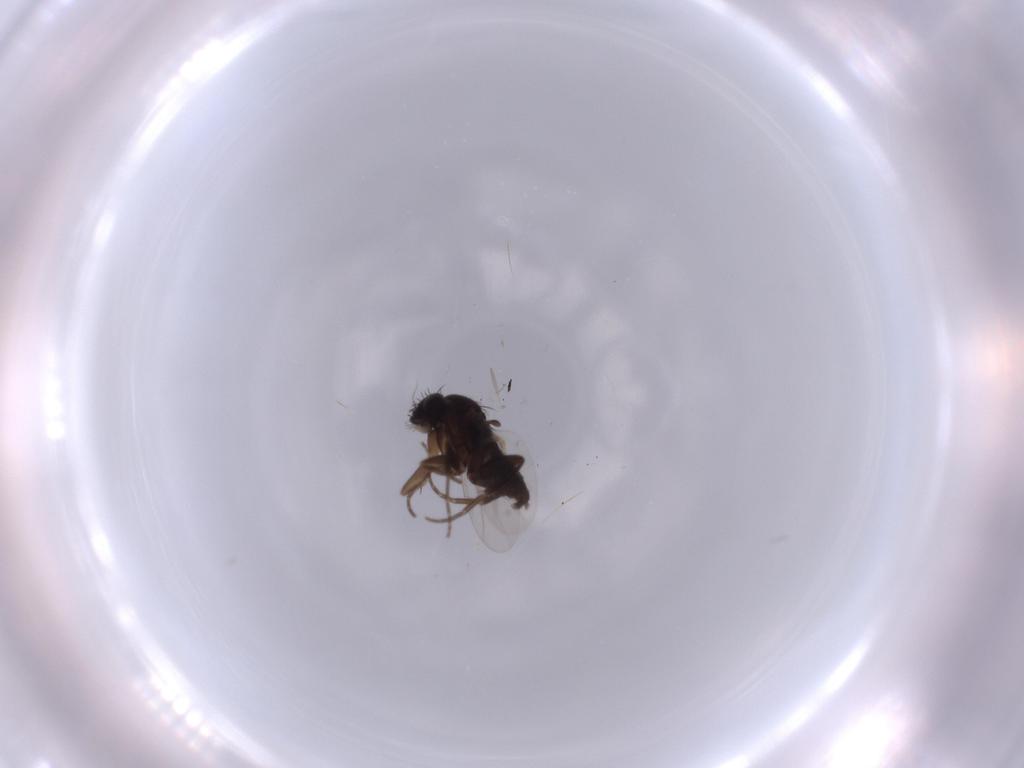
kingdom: Animalia
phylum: Arthropoda
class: Insecta
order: Diptera
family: Phoridae
